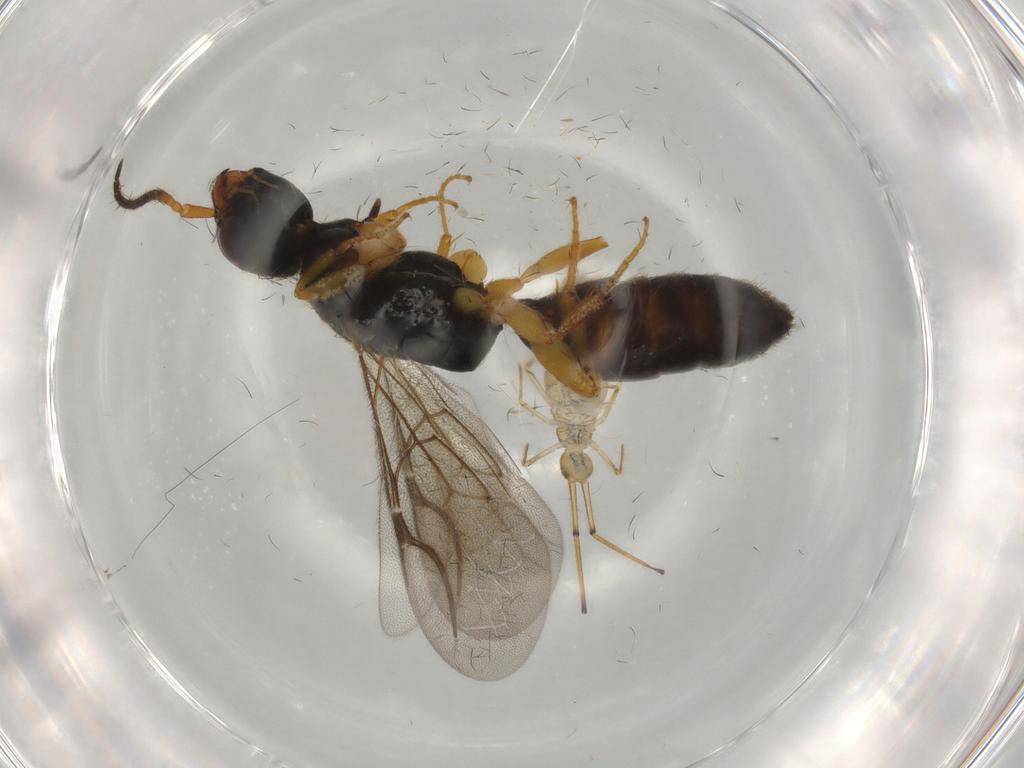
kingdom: Animalia
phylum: Arthropoda
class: Insecta
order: Hymenoptera
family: Bethylidae
